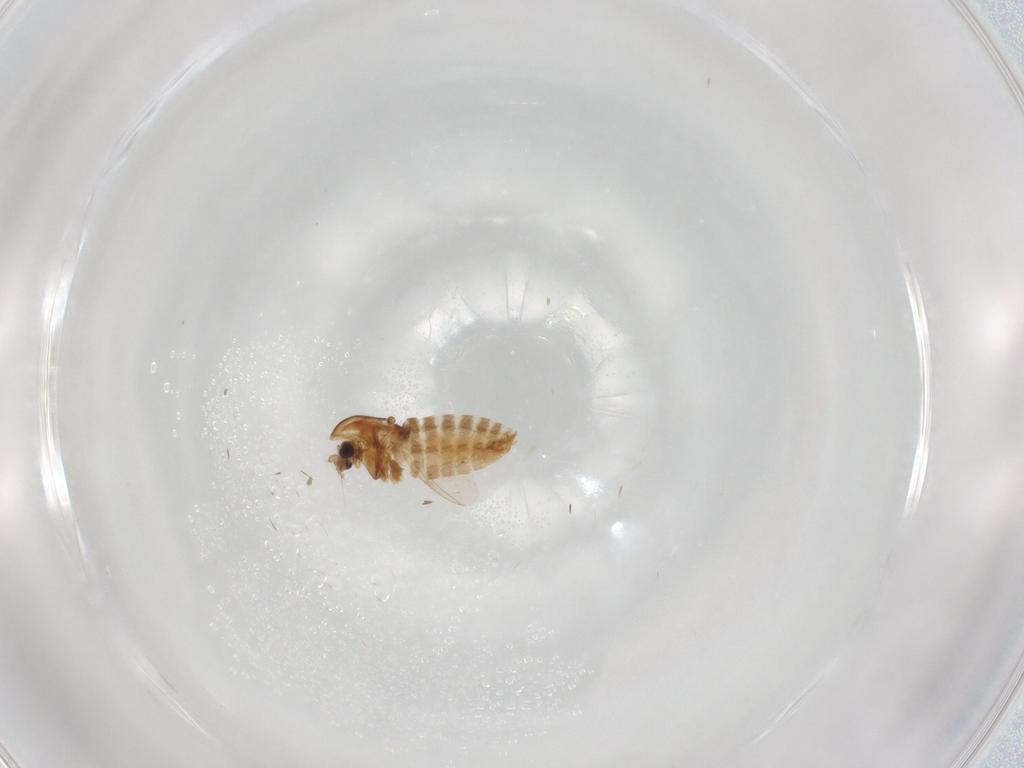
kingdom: Animalia
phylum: Arthropoda
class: Insecta
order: Diptera
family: Chironomidae
